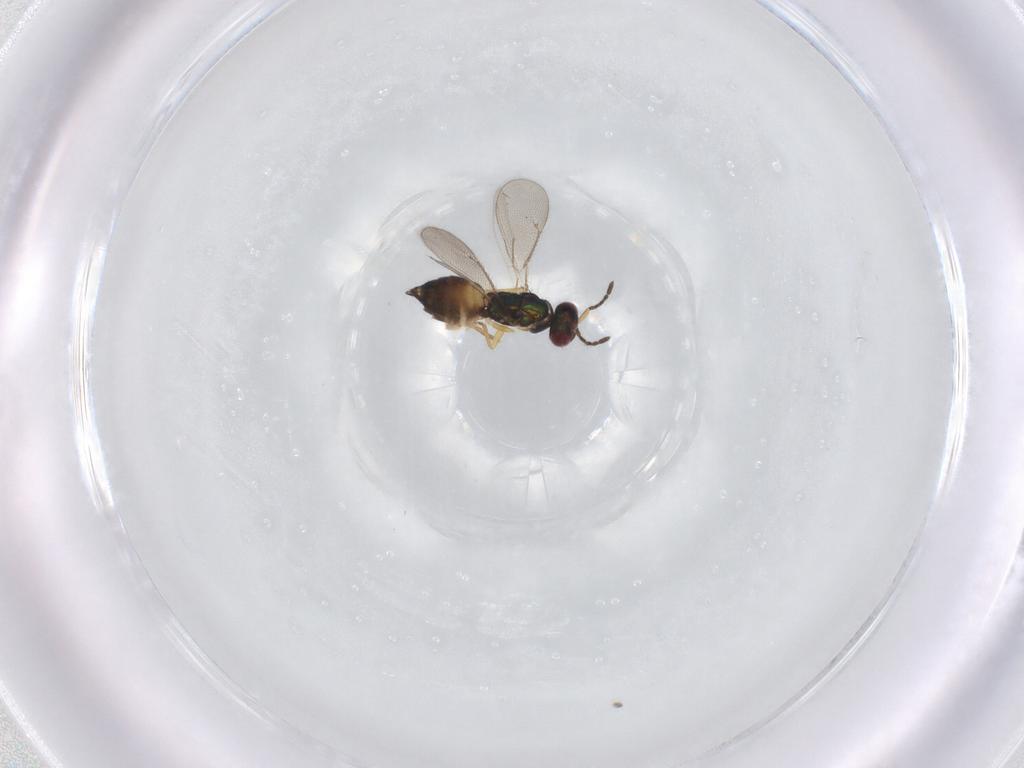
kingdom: Animalia
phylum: Arthropoda
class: Insecta
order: Hymenoptera
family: Eulophidae
